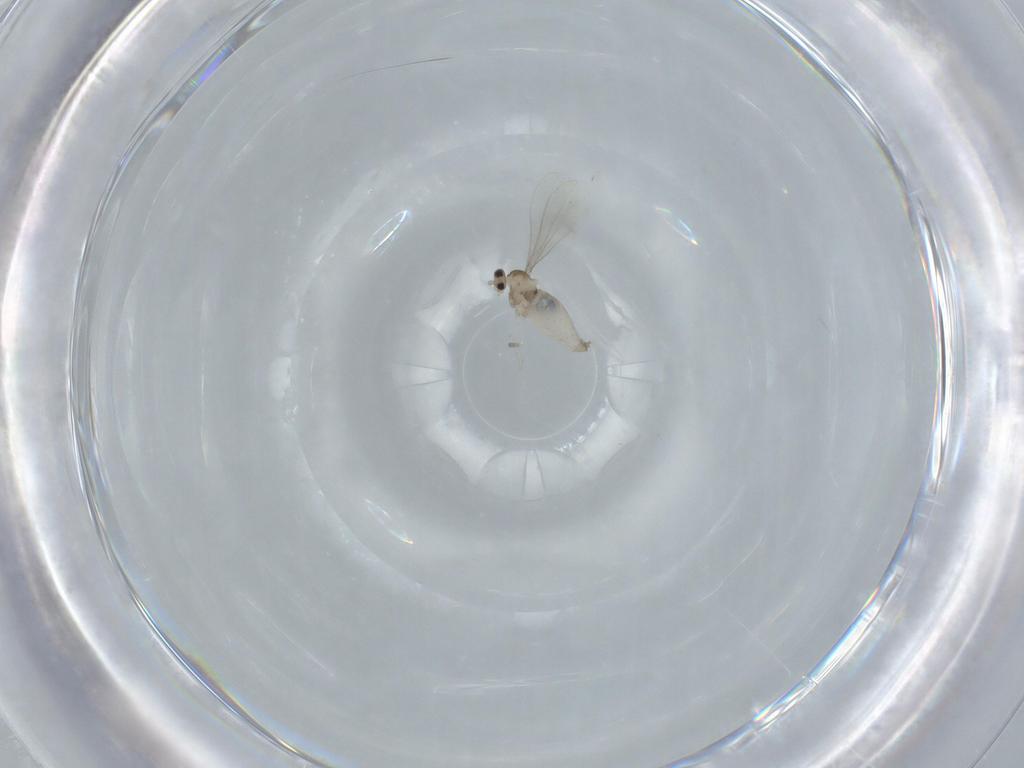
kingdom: Animalia
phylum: Arthropoda
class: Insecta
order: Diptera
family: Cecidomyiidae
